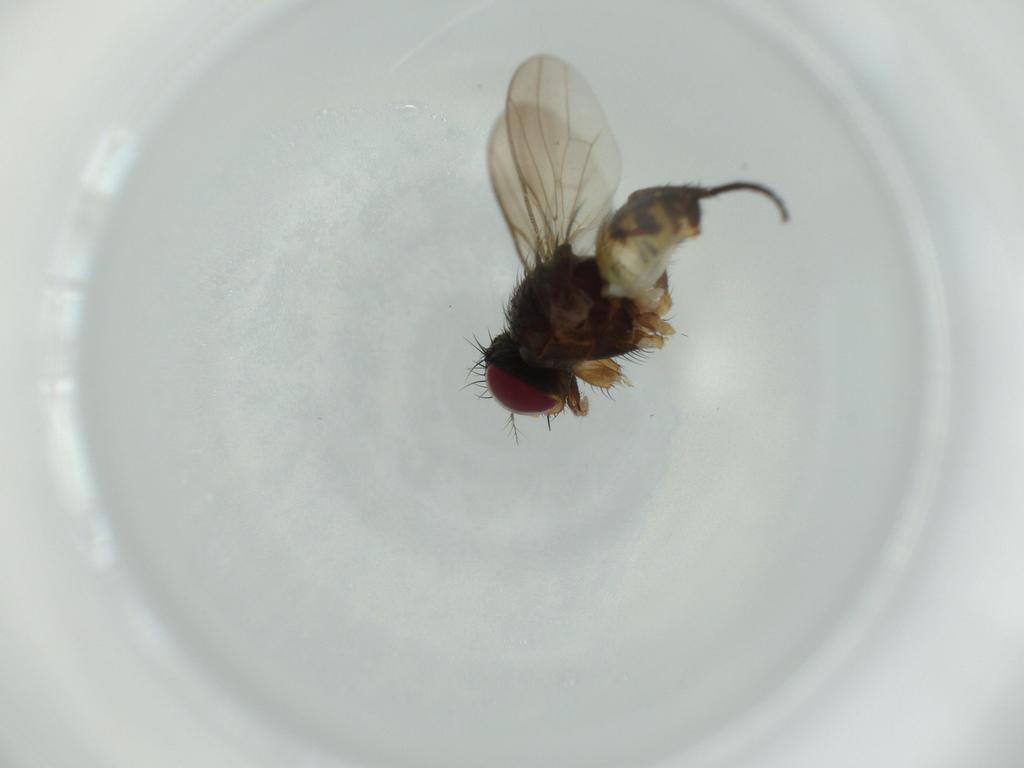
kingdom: Animalia
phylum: Arthropoda
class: Insecta
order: Diptera
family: Anthomyiidae
